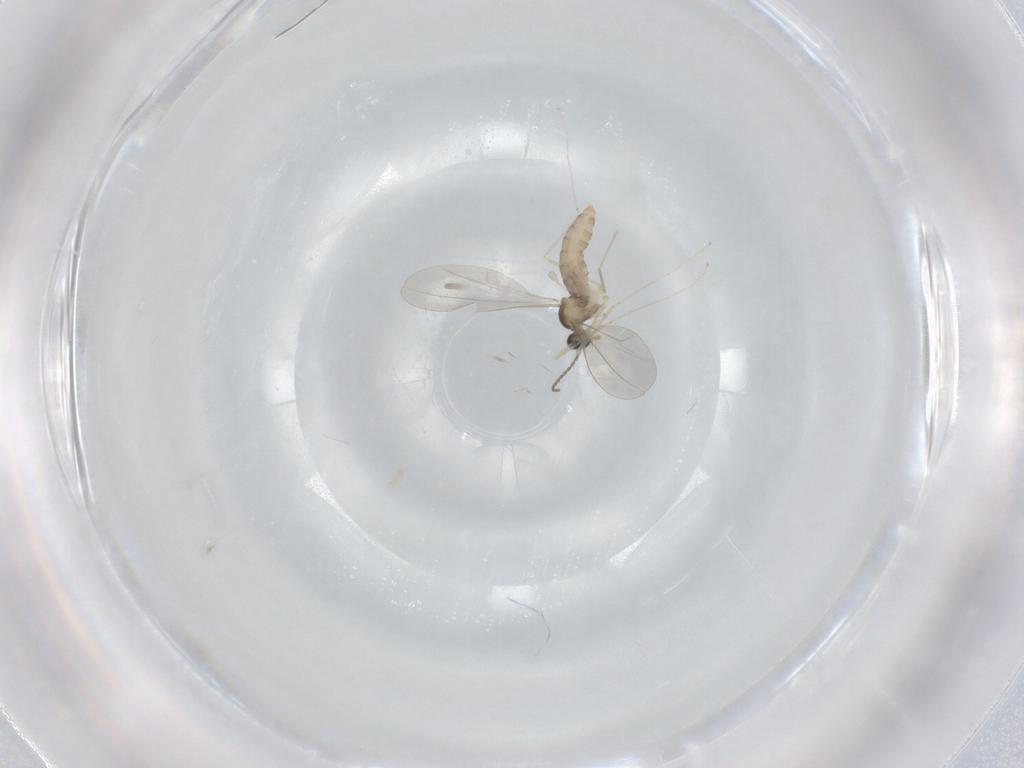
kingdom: Animalia
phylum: Arthropoda
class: Insecta
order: Diptera
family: Cecidomyiidae
